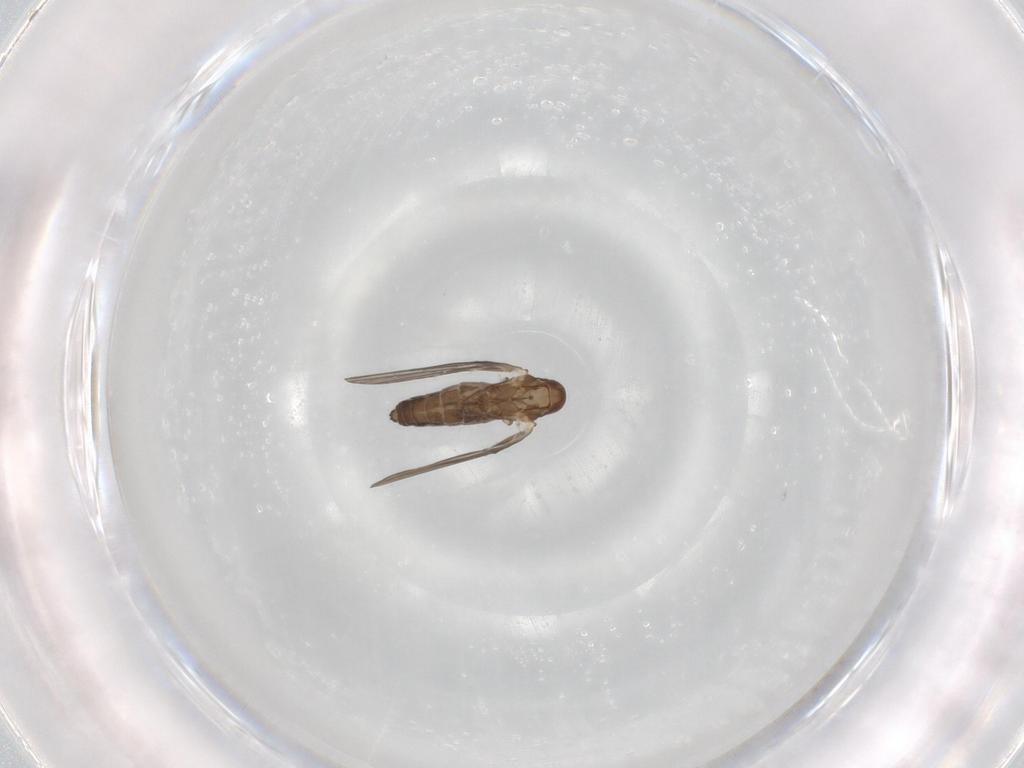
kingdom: Animalia
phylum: Arthropoda
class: Insecta
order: Diptera
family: Psychodidae
